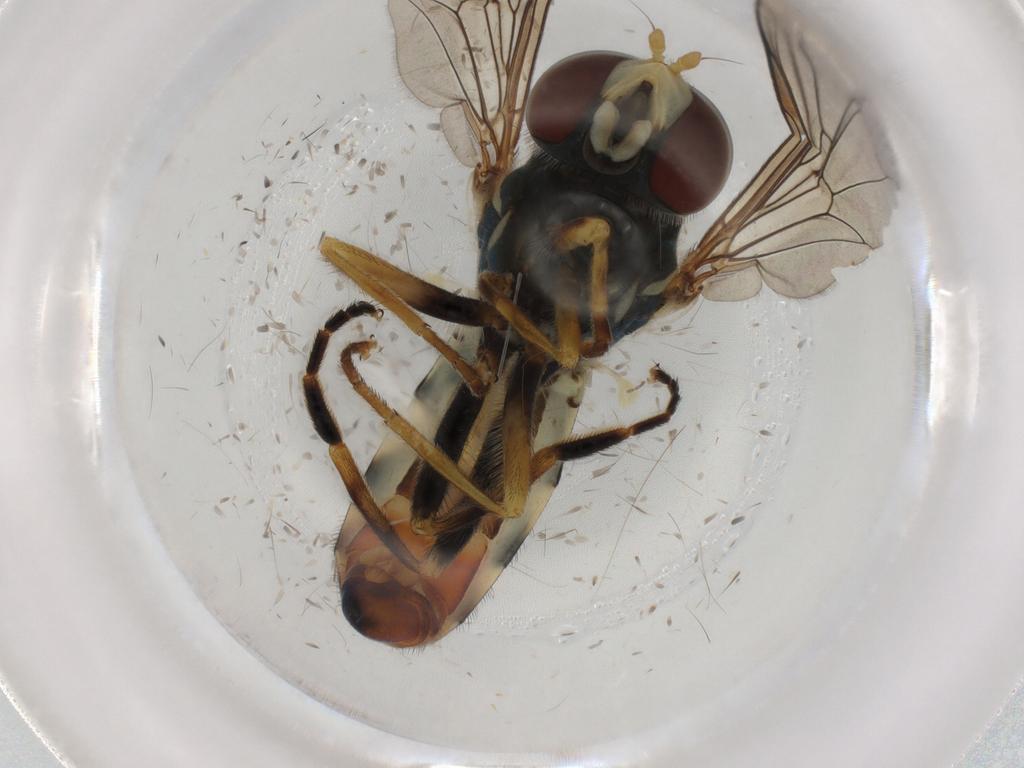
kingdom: Animalia
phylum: Arthropoda
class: Insecta
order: Diptera
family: Syrphidae
